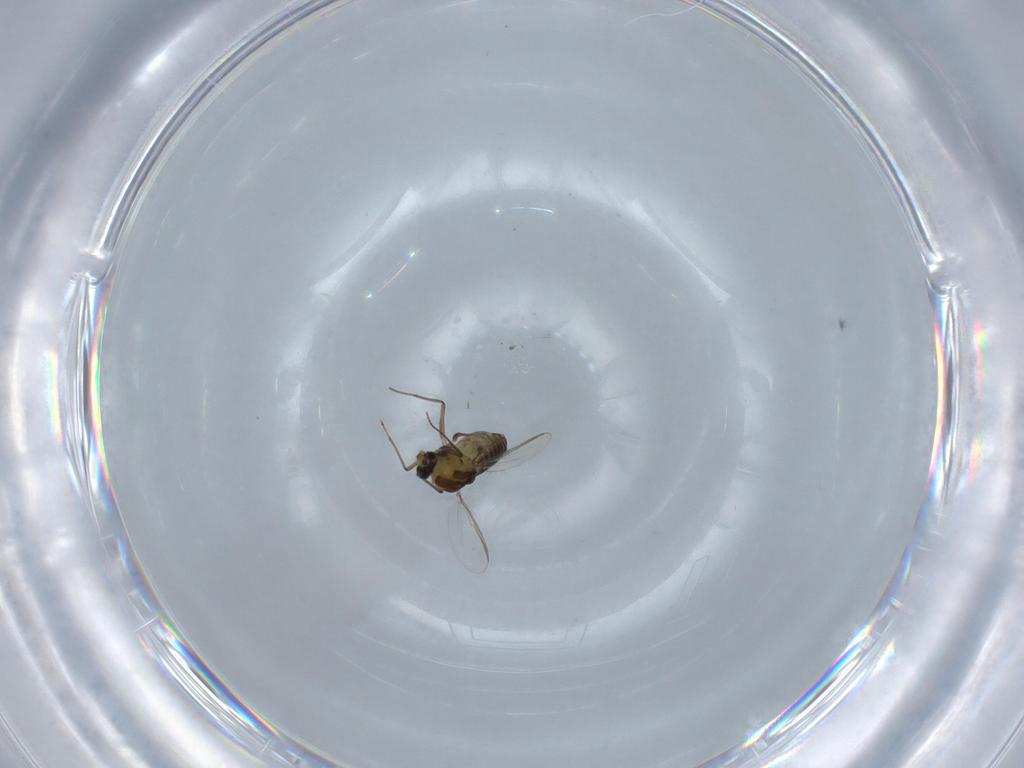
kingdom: Animalia
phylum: Arthropoda
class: Insecta
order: Diptera
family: Chironomidae
